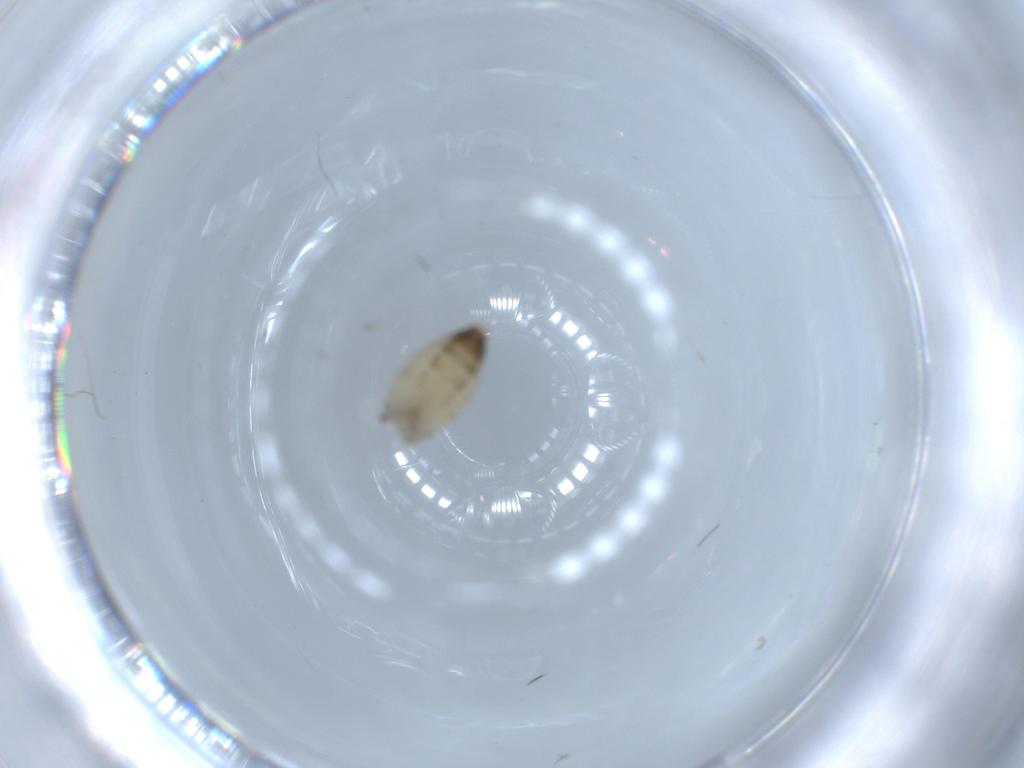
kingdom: Animalia
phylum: Arthropoda
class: Insecta
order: Diptera
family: Ceratopogonidae
